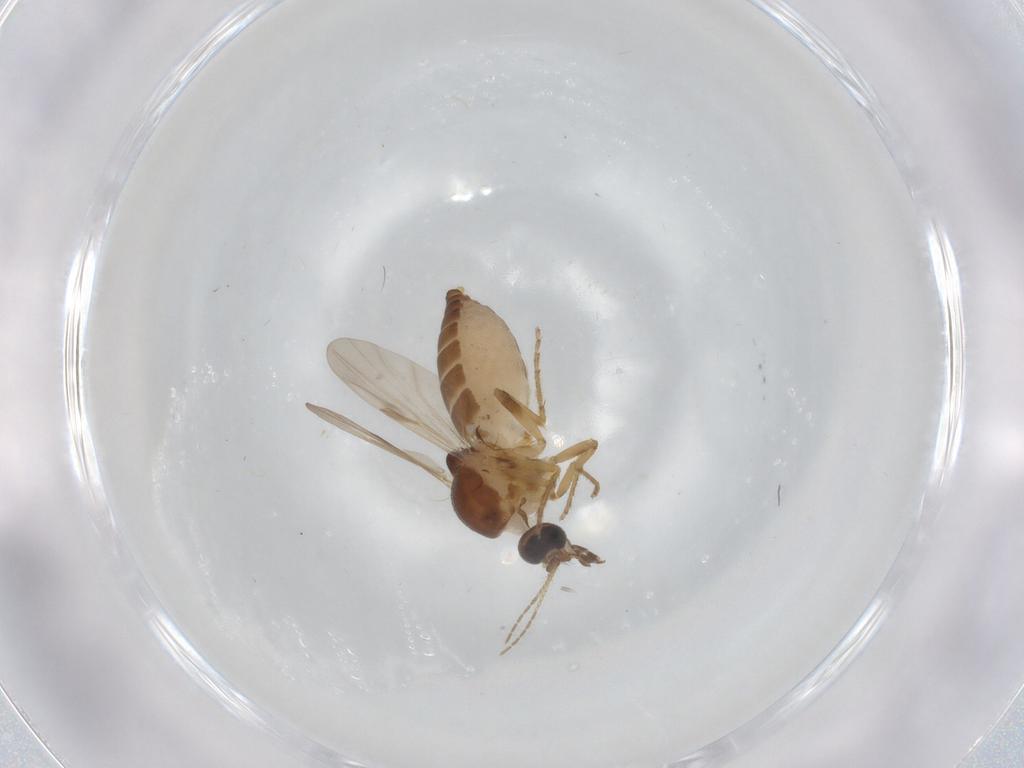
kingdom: Animalia
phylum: Arthropoda
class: Insecta
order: Diptera
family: Ceratopogonidae
